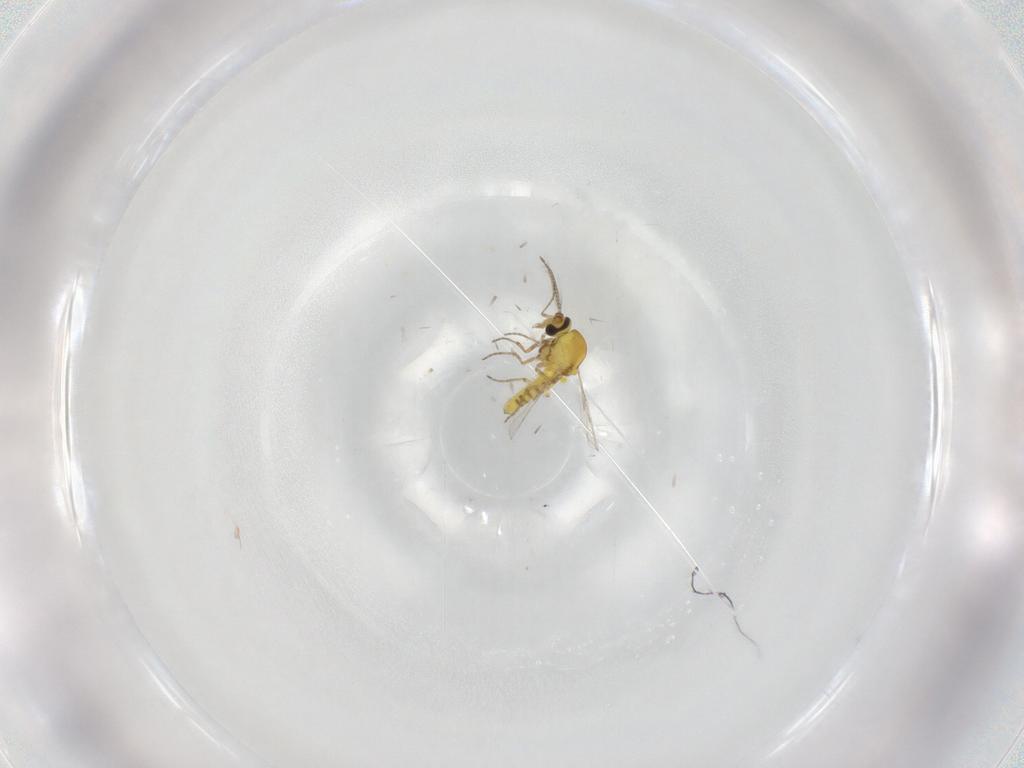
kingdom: Animalia
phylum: Arthropoda
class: Insecta
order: Diptera
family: Ceratopogonidae
